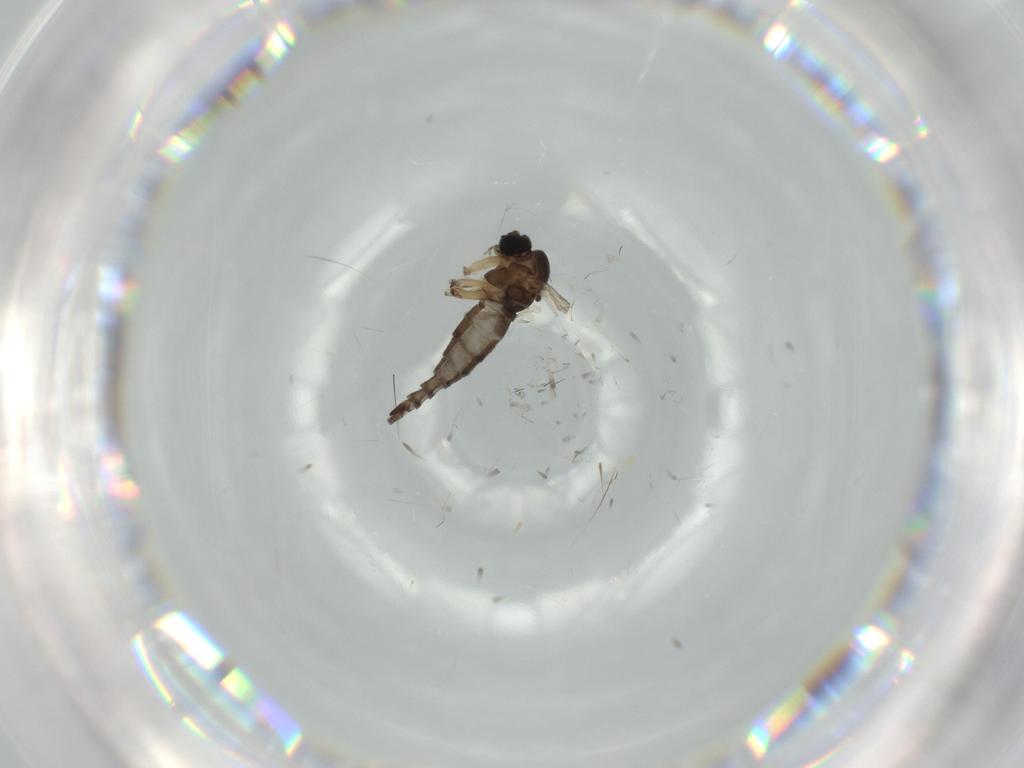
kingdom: Animalia
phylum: Arthropoda
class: Insecta
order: Diptera
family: Sciaridae
